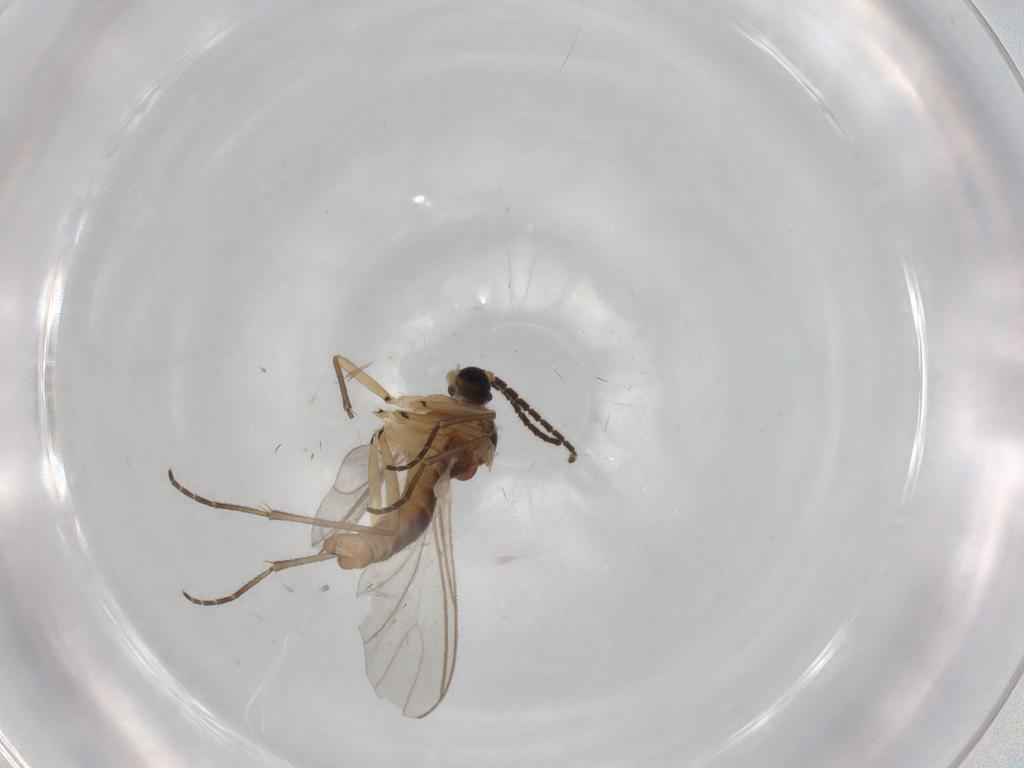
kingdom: Animalia
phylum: Arthropoda
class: Insecta
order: Diptera
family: Sciaridae
